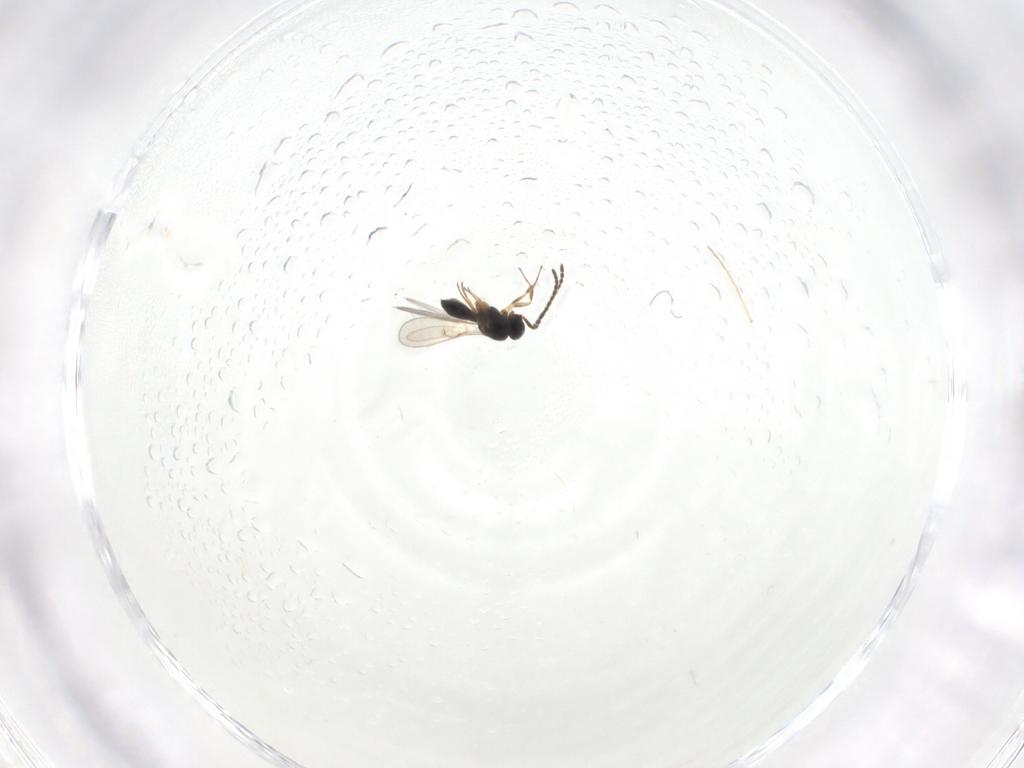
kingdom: Animalia
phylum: Arthropoda
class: Insecta
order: Hymenoptera
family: Scelionidae
